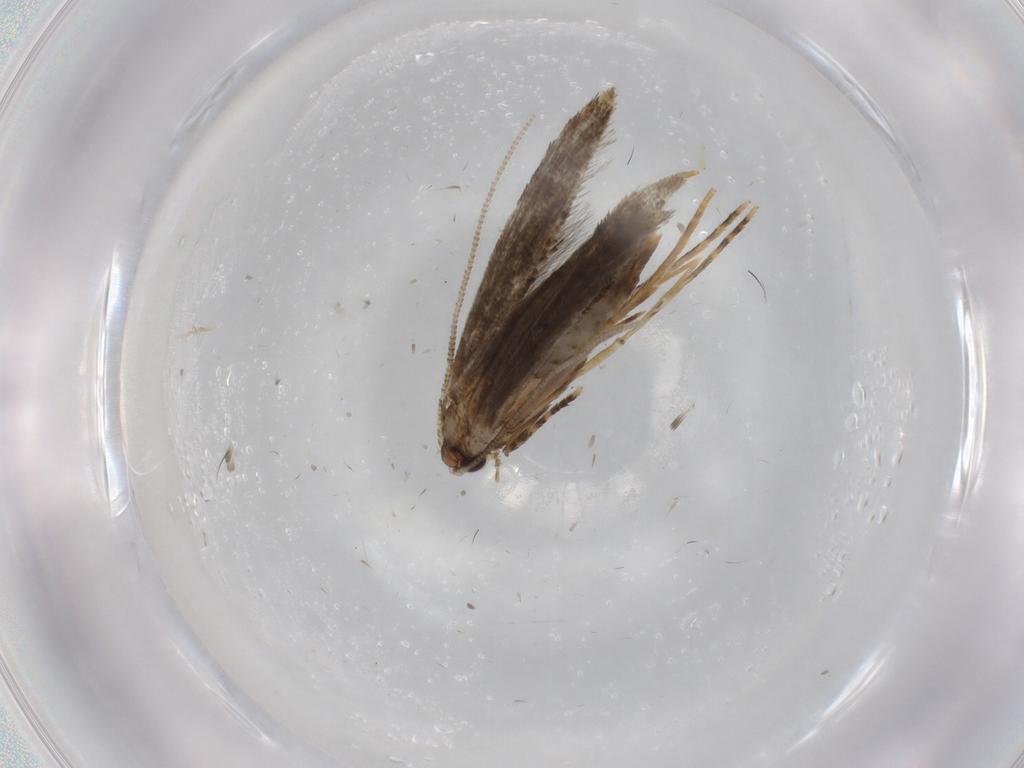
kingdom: Animalia
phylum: Arthropoda
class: Insecta
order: Lepidoptera
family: Tineidae
